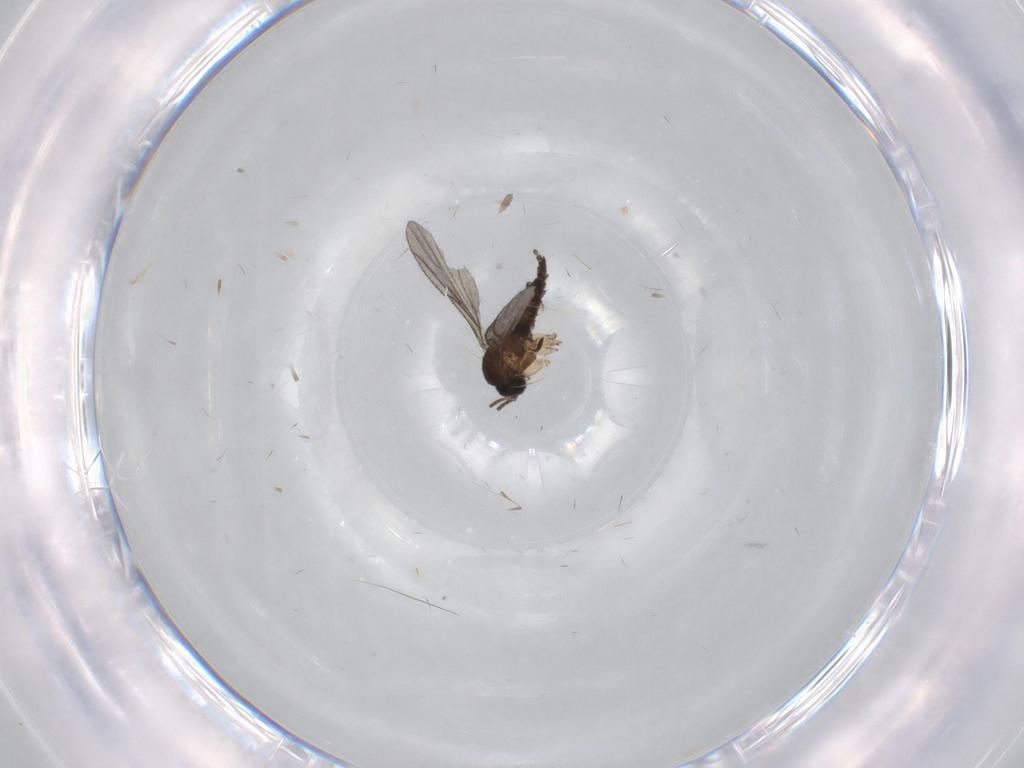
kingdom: Animalia
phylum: Arthropoda
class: Insecta
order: Diptera
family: Sciaridae
